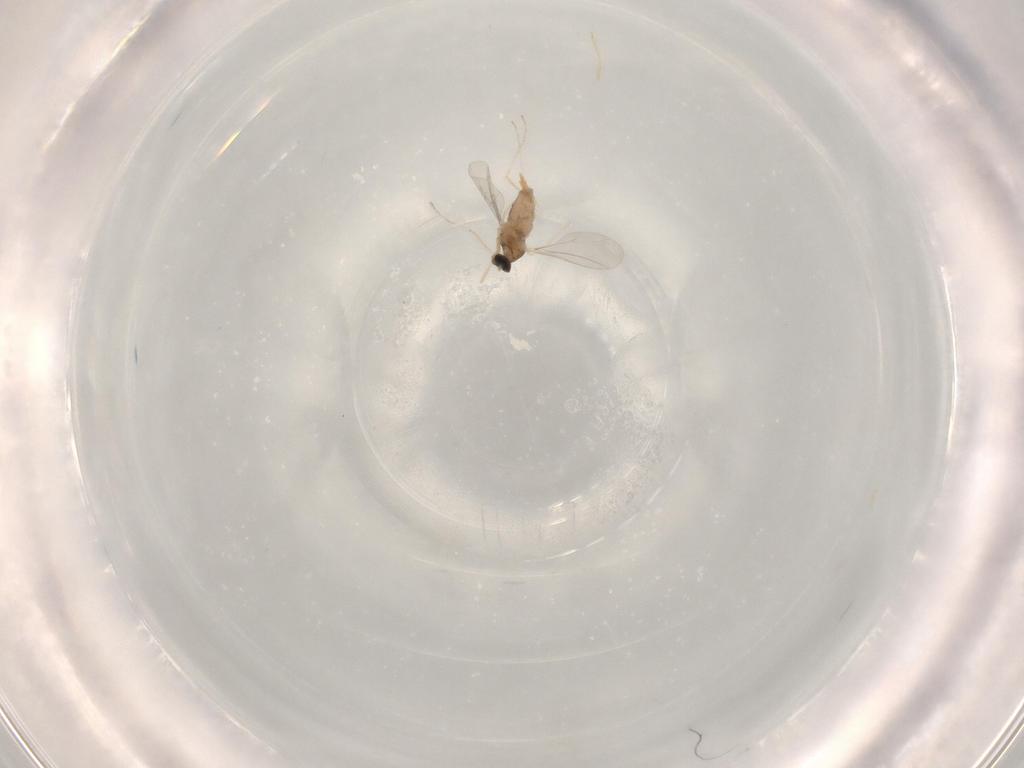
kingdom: Animalia
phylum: Arthropoda
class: Insecta
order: Diptera
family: Cecidomyiidae
